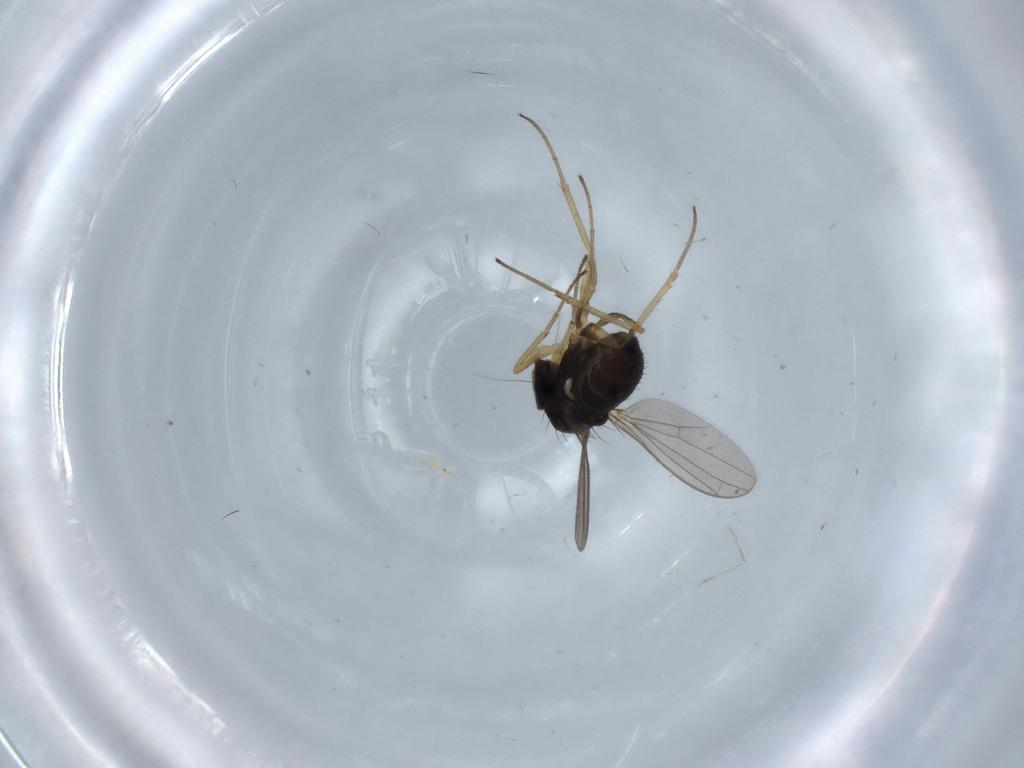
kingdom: Animalia
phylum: Arthropoda
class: Insecta
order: Diptera
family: Dolichopodidae
